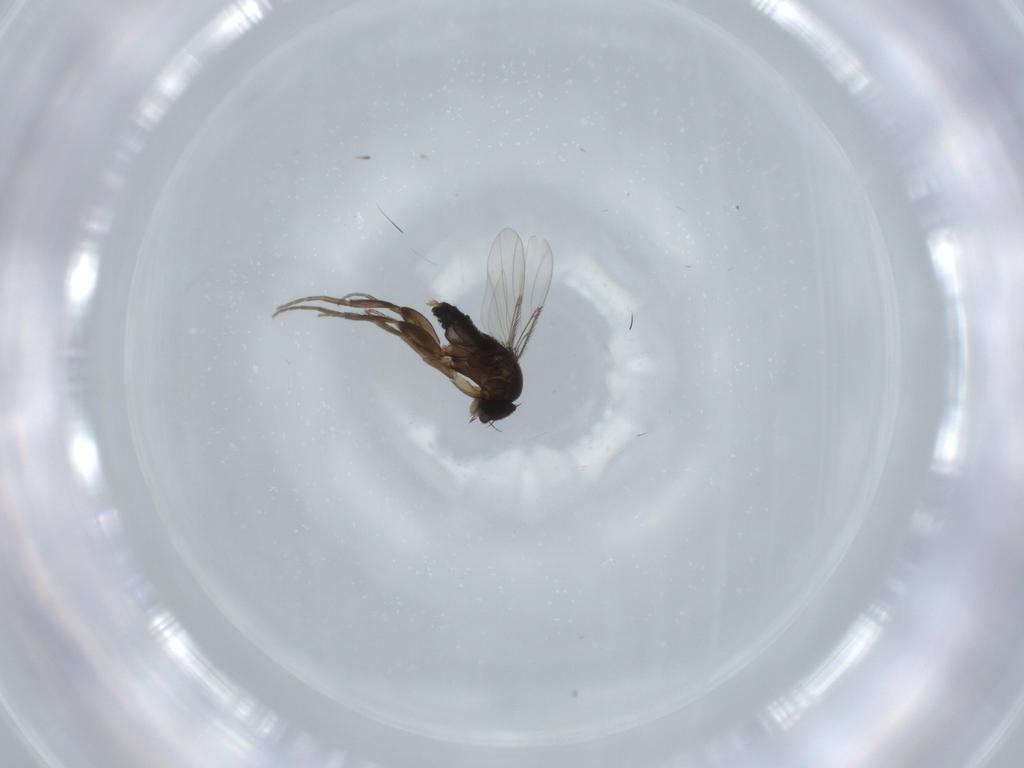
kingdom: Animalia
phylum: Arthropoda
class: Insecta
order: Diptera
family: Phoridae
